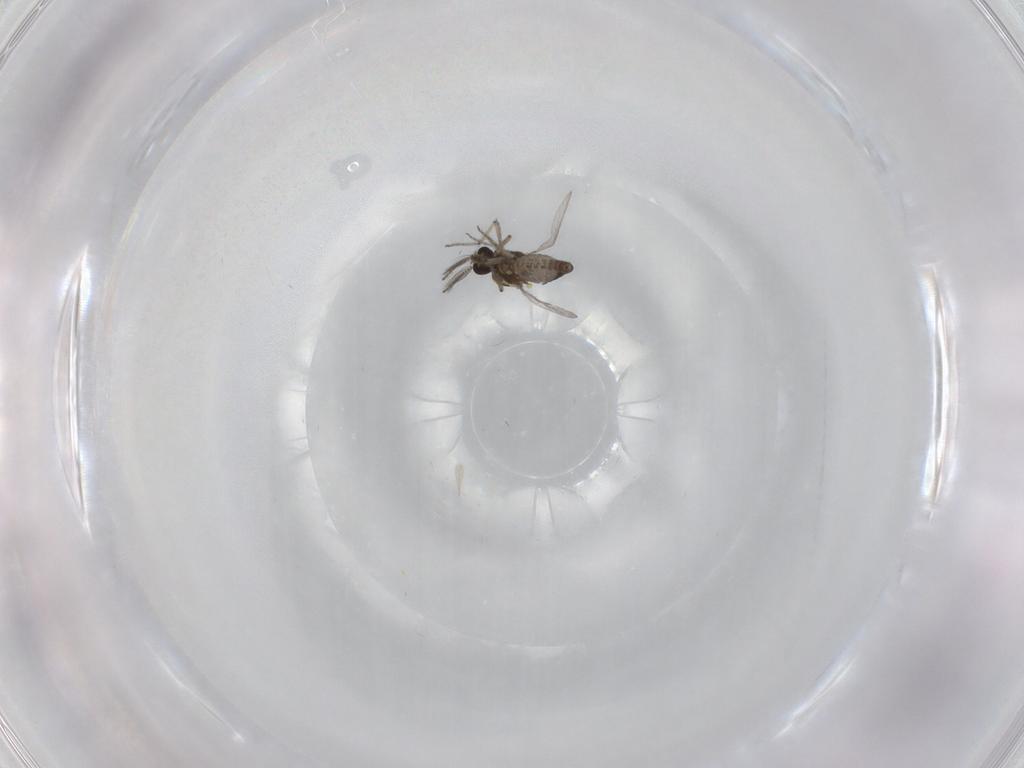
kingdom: Animalia
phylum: Arthropoda
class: Insecta
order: Diptera
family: Ceratopogonidae
